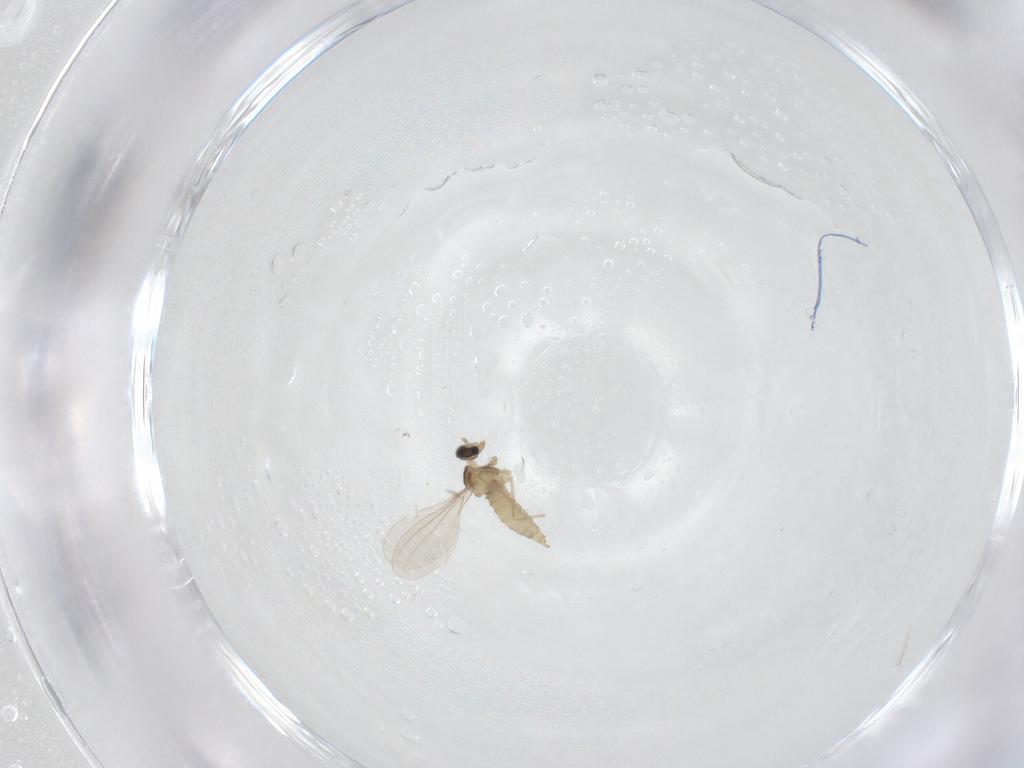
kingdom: Animalia
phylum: Arthropoda
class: Insecta
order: Diptera
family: Cecidomyiidae
